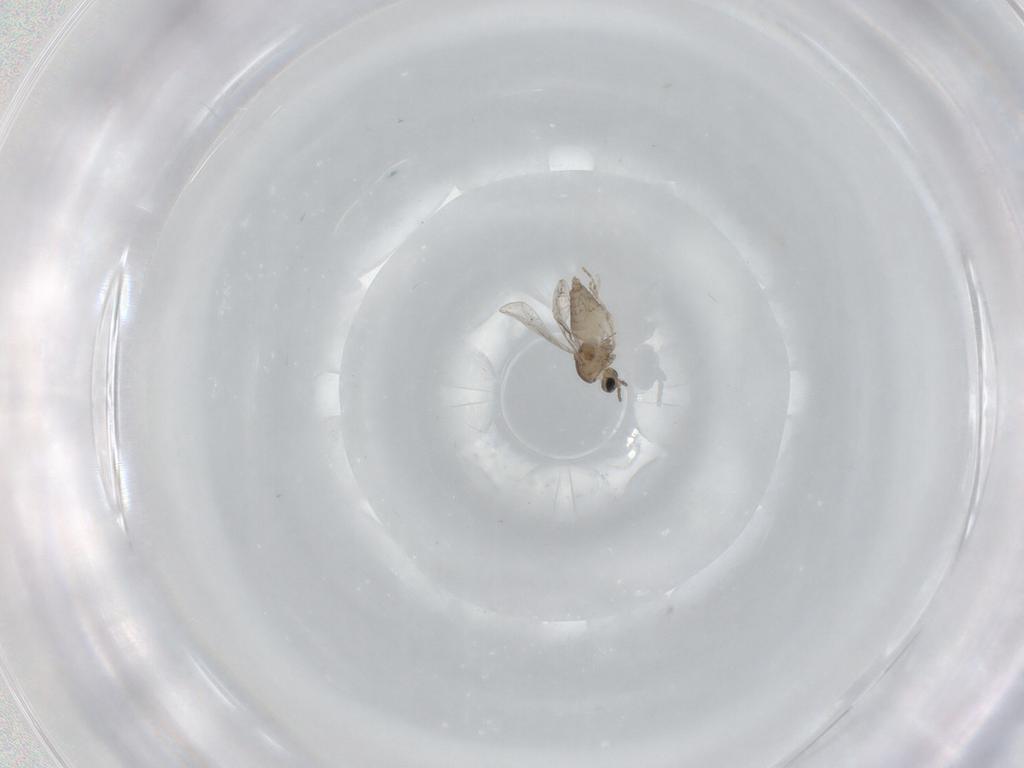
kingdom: Animalia
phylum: Arthropoda
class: Insecta
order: Diptera
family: Cecidomyiidae
